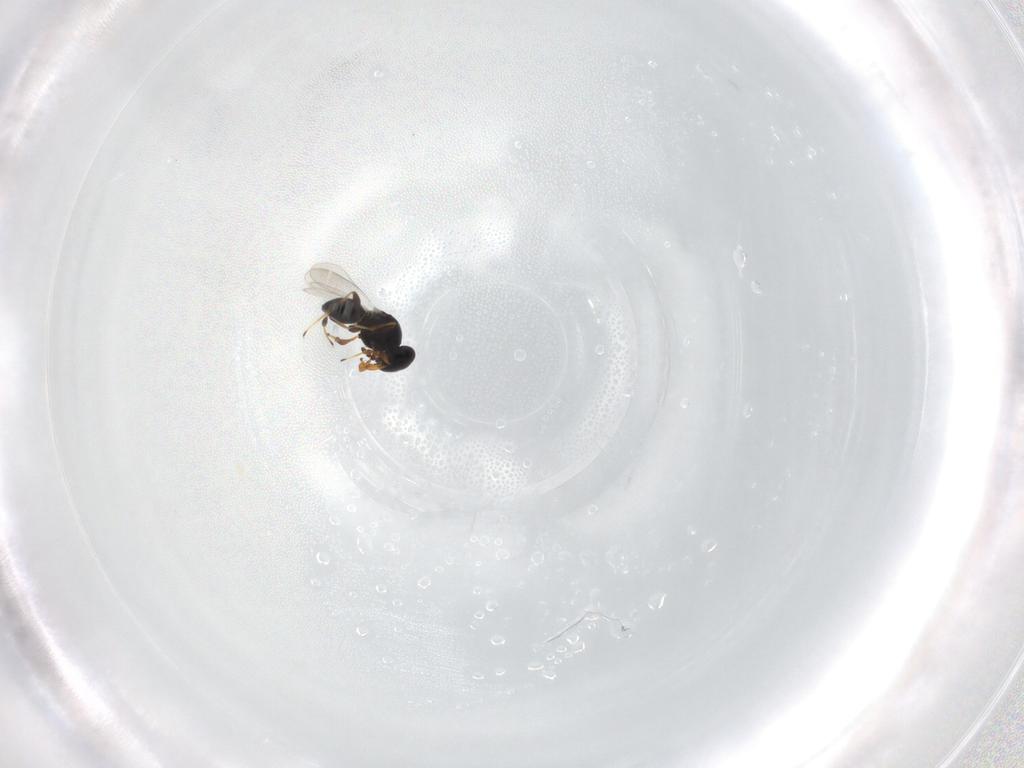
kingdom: Animalia
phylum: Arthropoda
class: Insecta
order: Hymenoptera
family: Platygastridae
